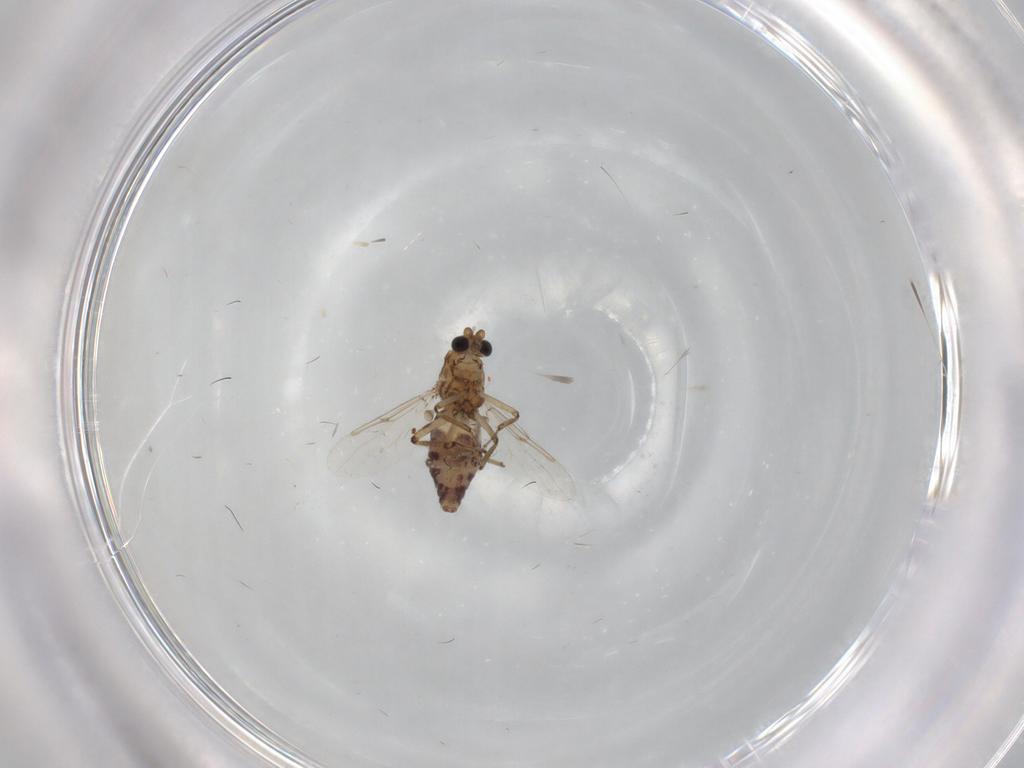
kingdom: Animalia
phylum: Arthropoda
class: Insecta
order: Diptera
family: Ceratopogonidae
